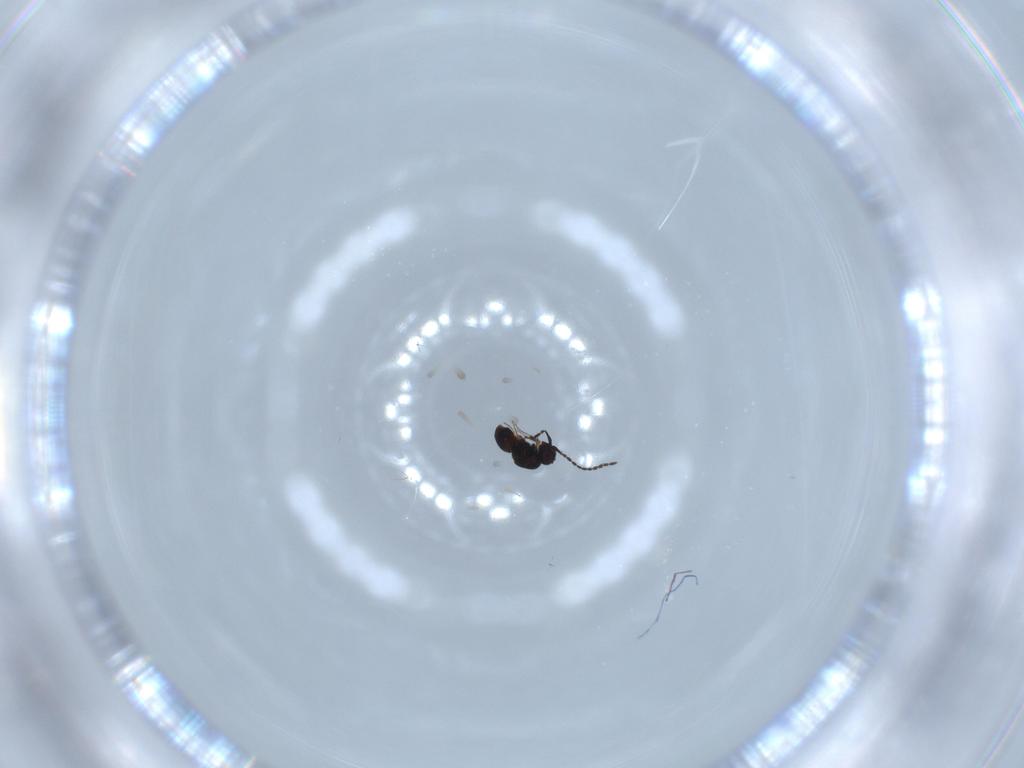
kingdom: Animalia
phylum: Arthropoda
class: Insecta
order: Hymenoptera
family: Ceraphronidae
